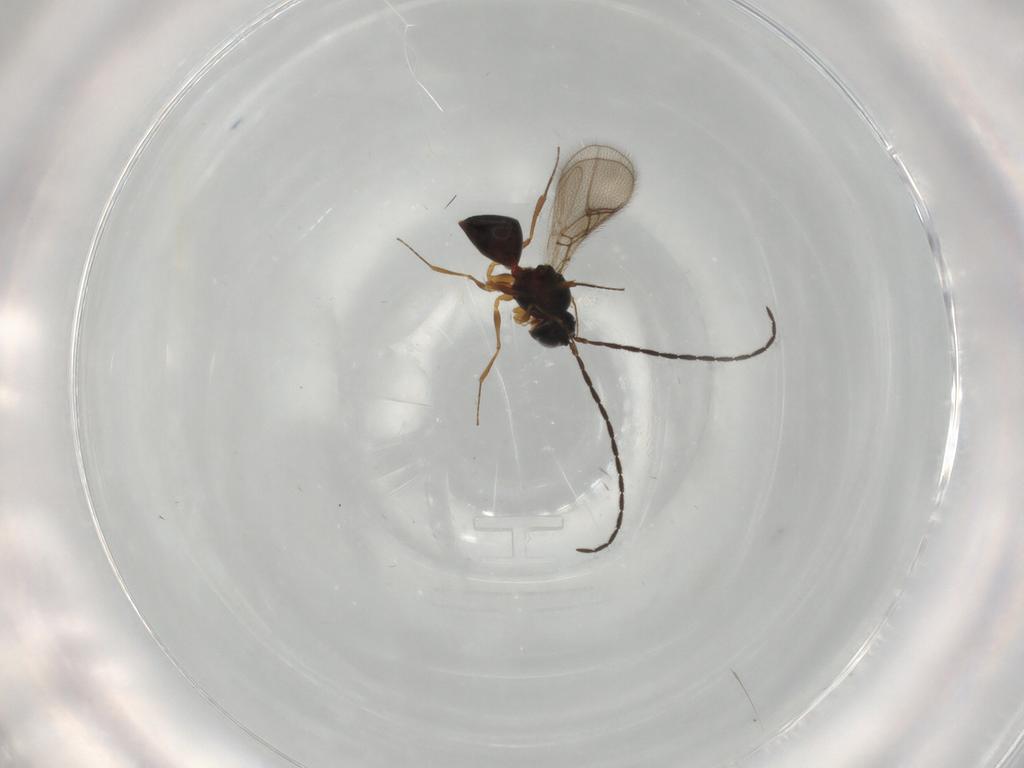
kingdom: Animalia
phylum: Arthropoda
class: Insecta
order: Hymenoptera
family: Figitidae
